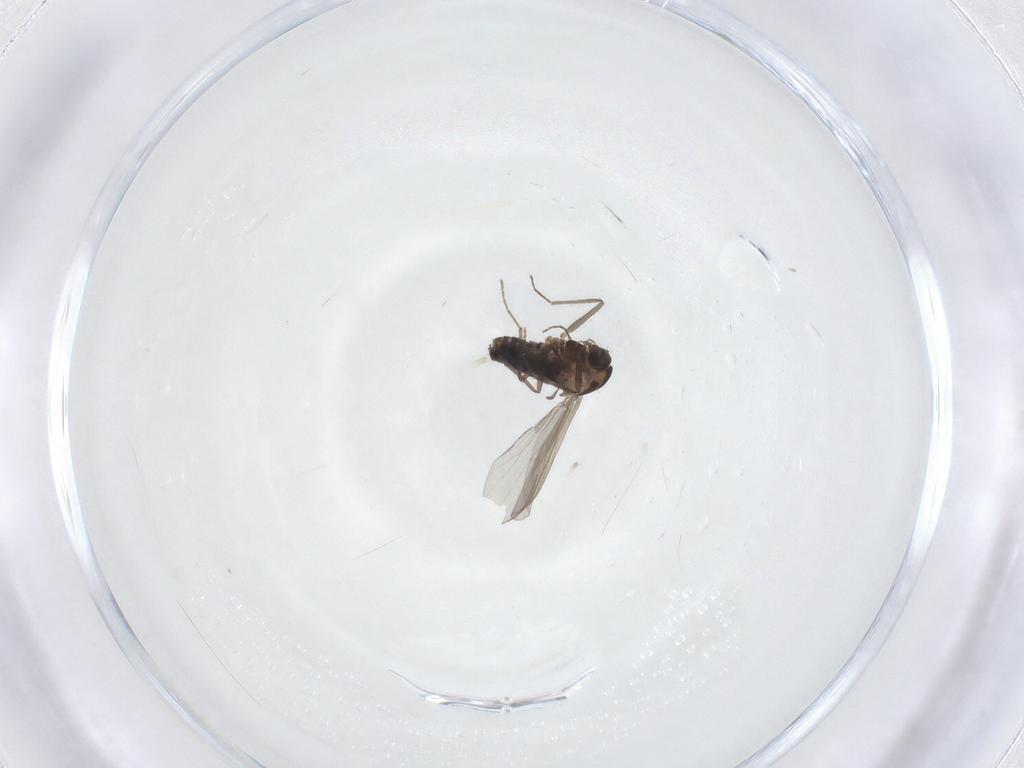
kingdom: Animalia
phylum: Arthropoda
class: Insecta
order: Diptera
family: Chironomidae
